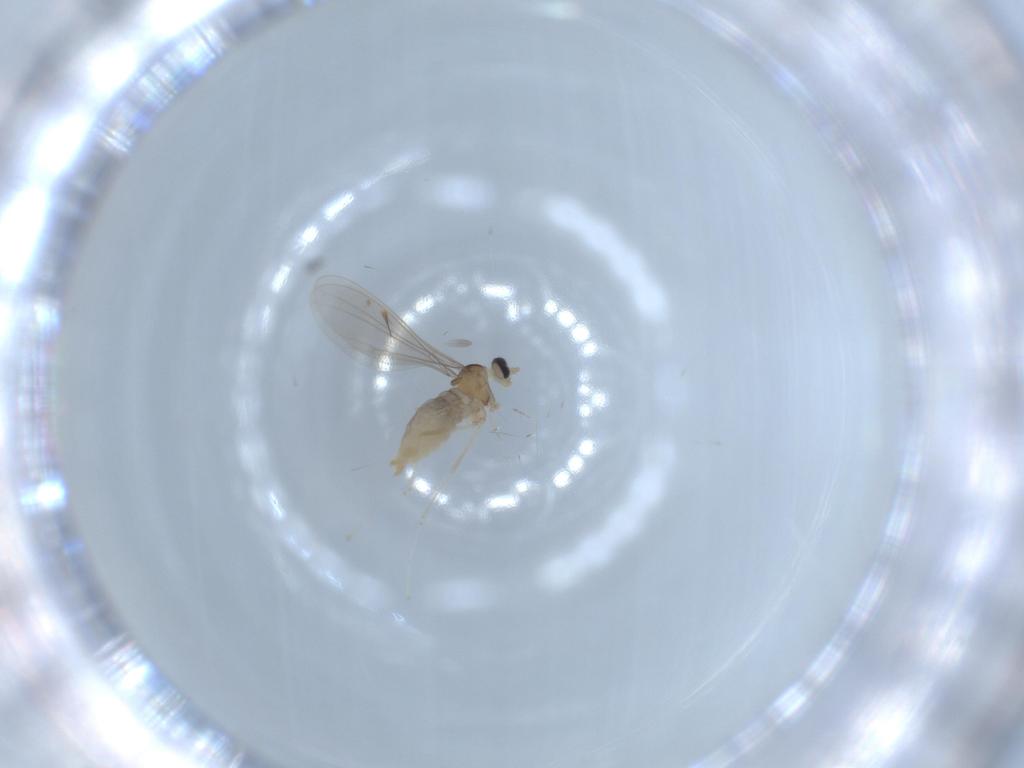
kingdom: Animalia
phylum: Arthropoda
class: Insecta
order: Diptera
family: Cecidomyiidae
